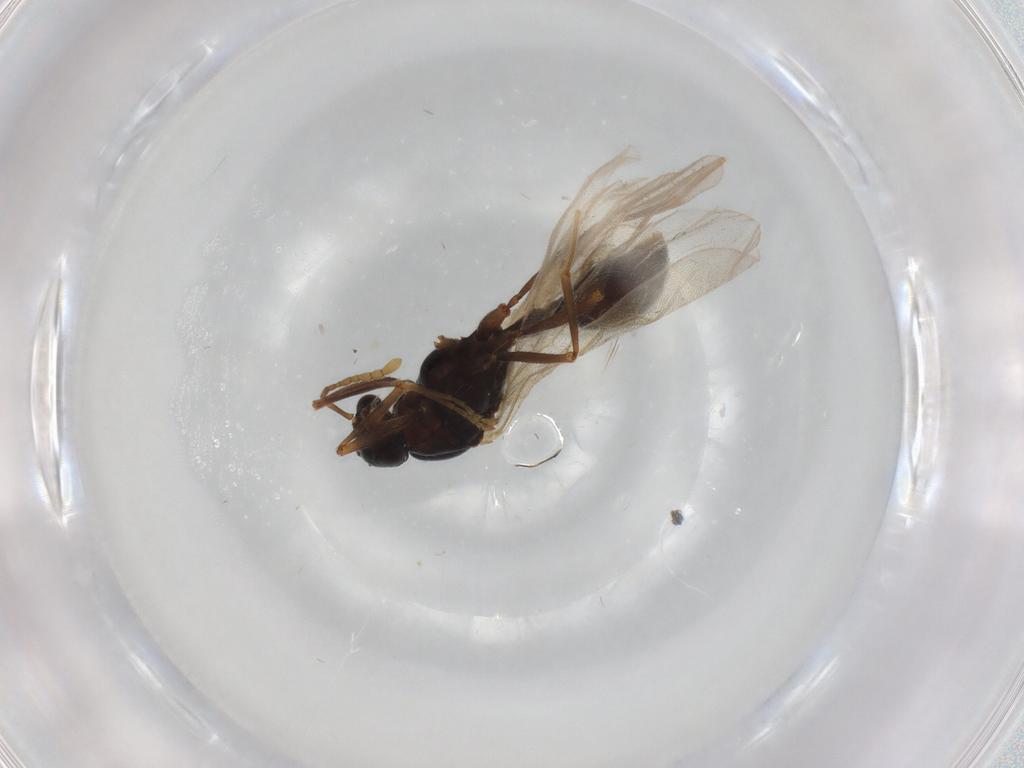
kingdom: Animalia
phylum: Arthropoda
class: Insecta
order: Hymenoptera
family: Formicidae
